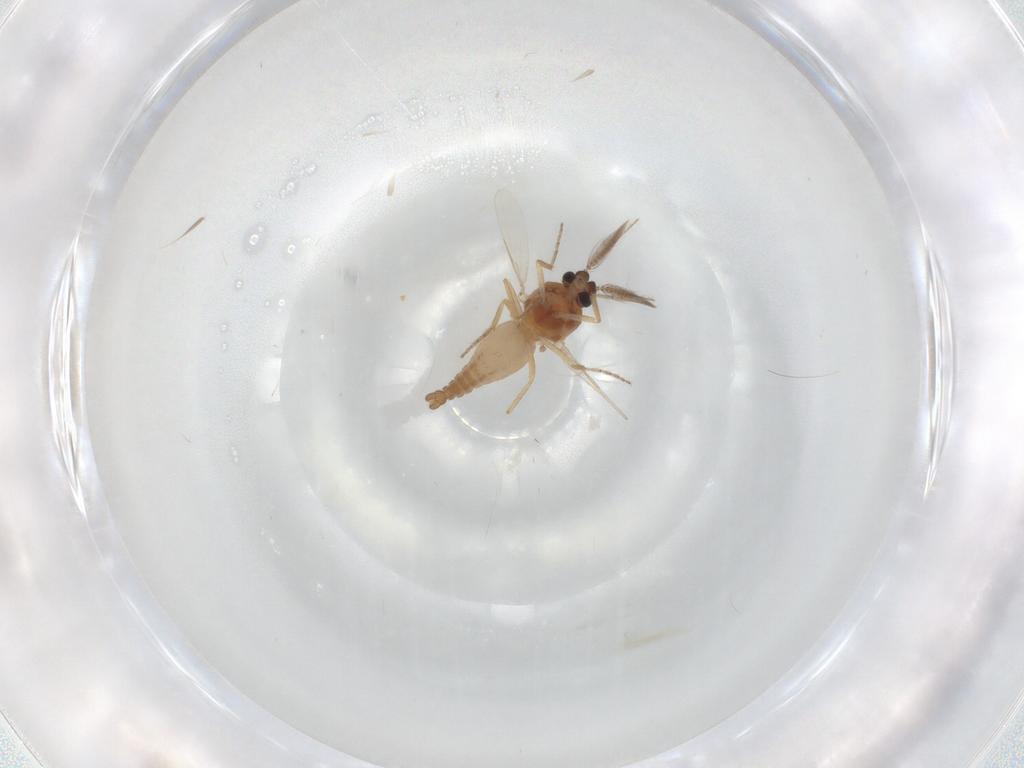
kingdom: Animalia
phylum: Arthropoda
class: Insecta
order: Diptera
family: Ceratopogonidae
